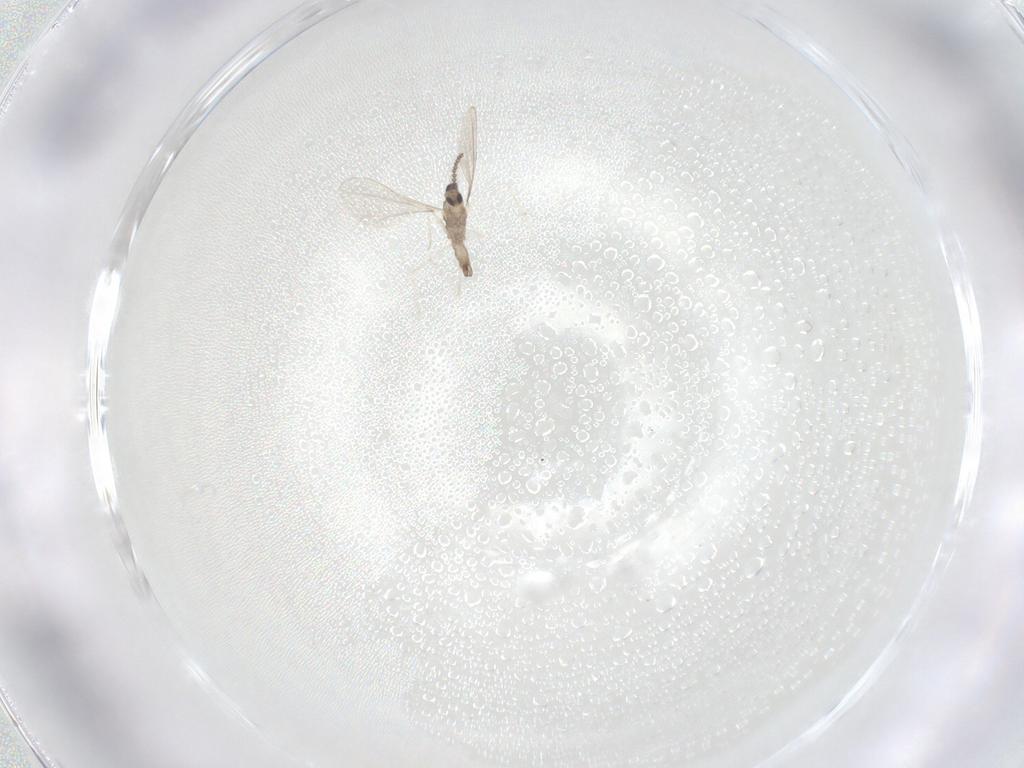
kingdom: Animalia
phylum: Arthropoda
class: Insecta
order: Diptera
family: Cecidomyiidae
